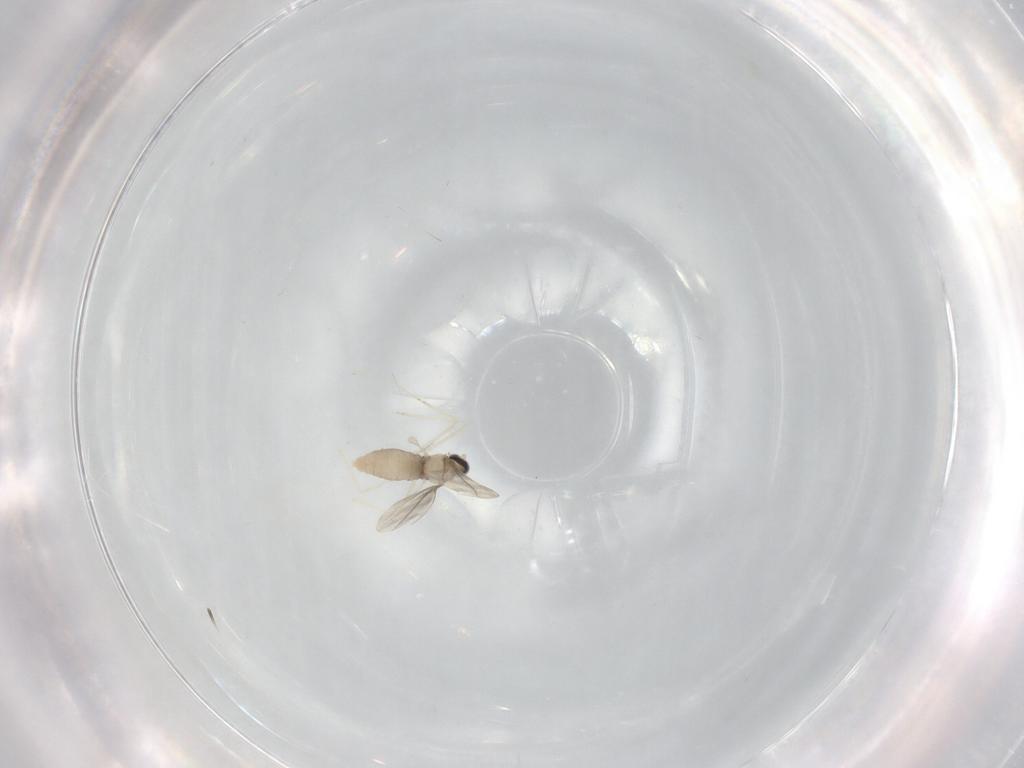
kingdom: Animalia
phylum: Arthropoda
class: Insecta
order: Diptera
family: Cecidomyiidae
